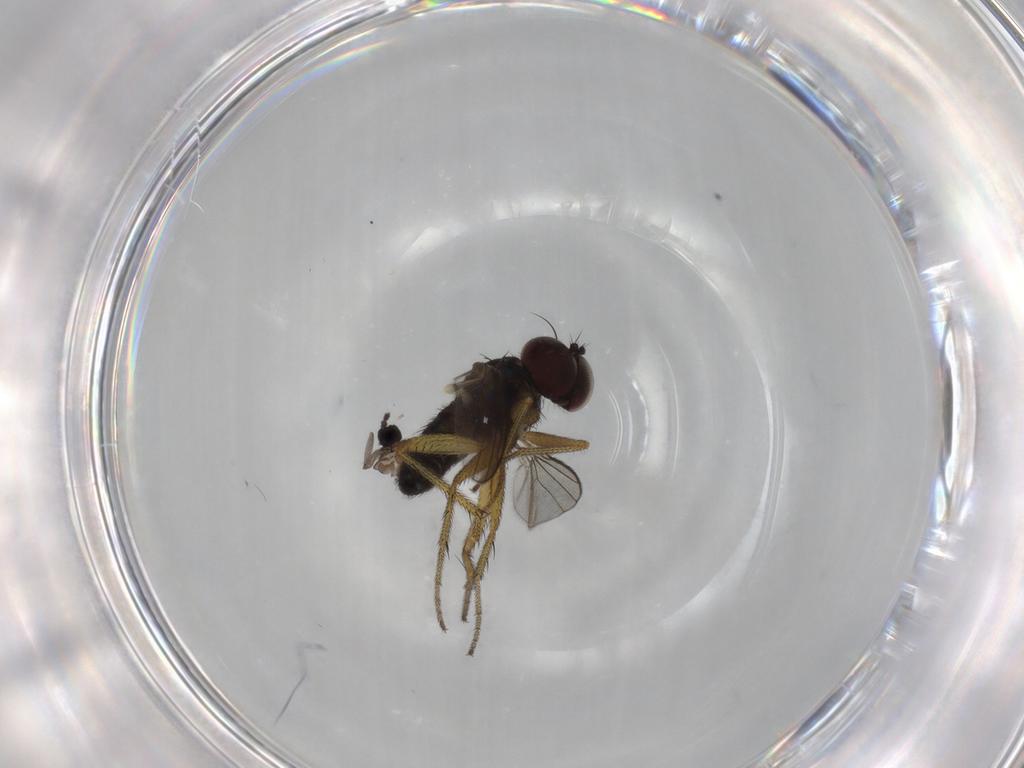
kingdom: Animalia
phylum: Arthropoda
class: Insecta
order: Diptera
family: Dolichopodidae
